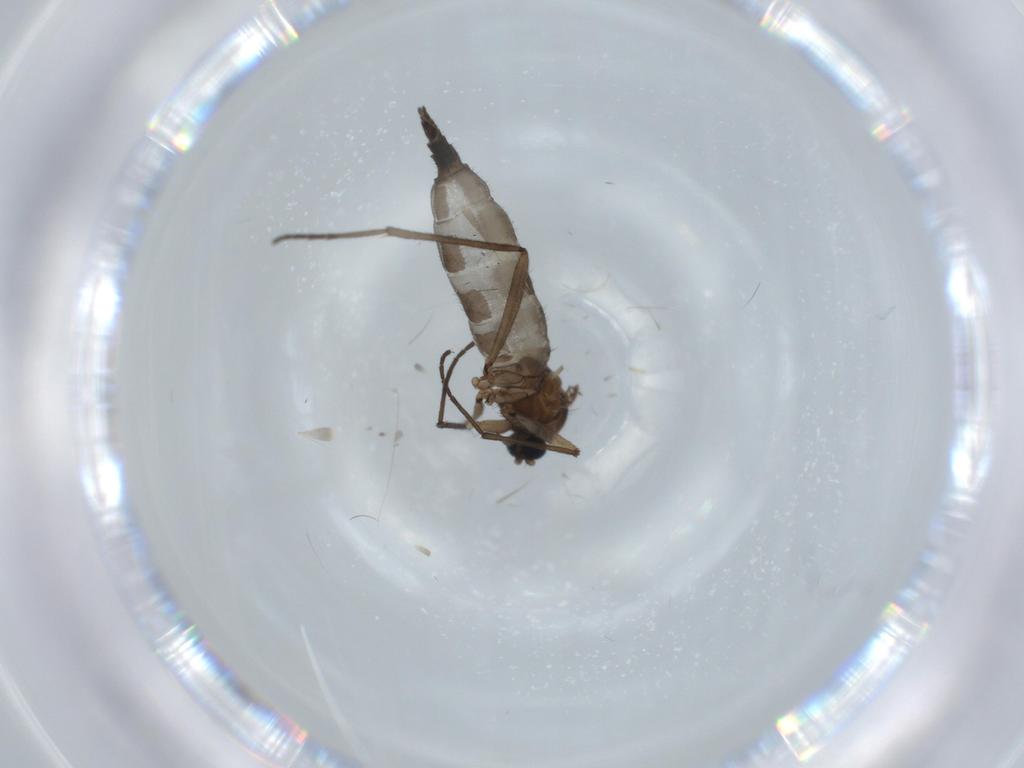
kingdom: Animalia
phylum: Arthropoda
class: Insecta
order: Diptera
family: Sciaridae
